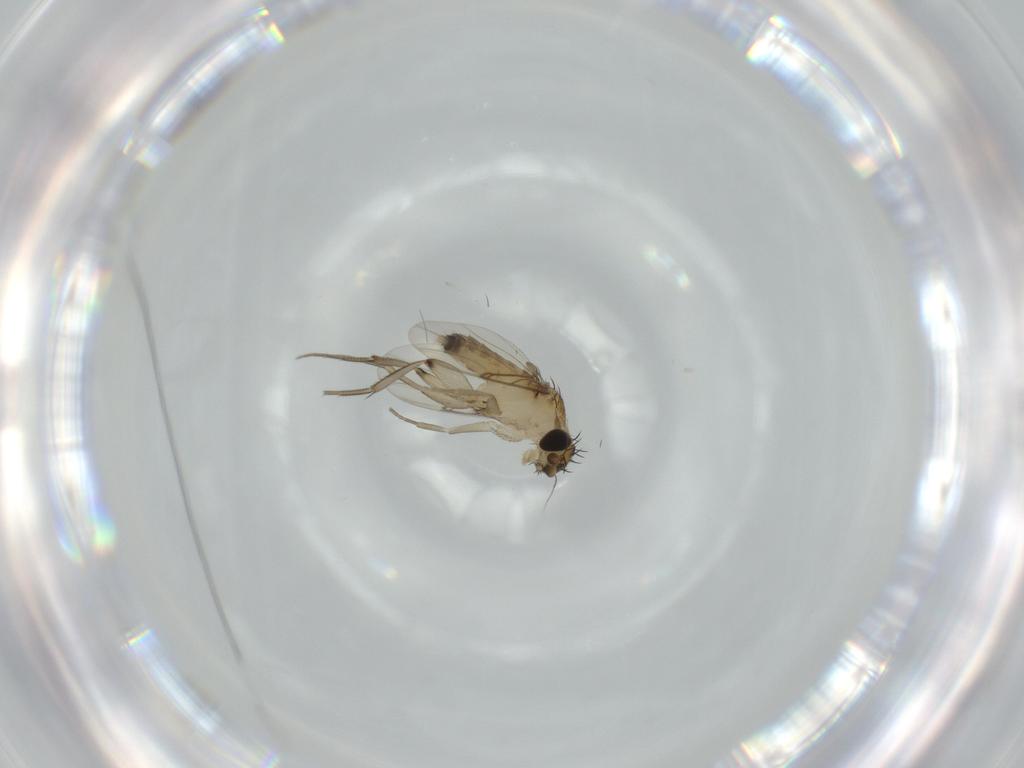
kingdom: Animalia
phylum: Arthropoda
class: Insecta
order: Diptera
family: Phoridae
